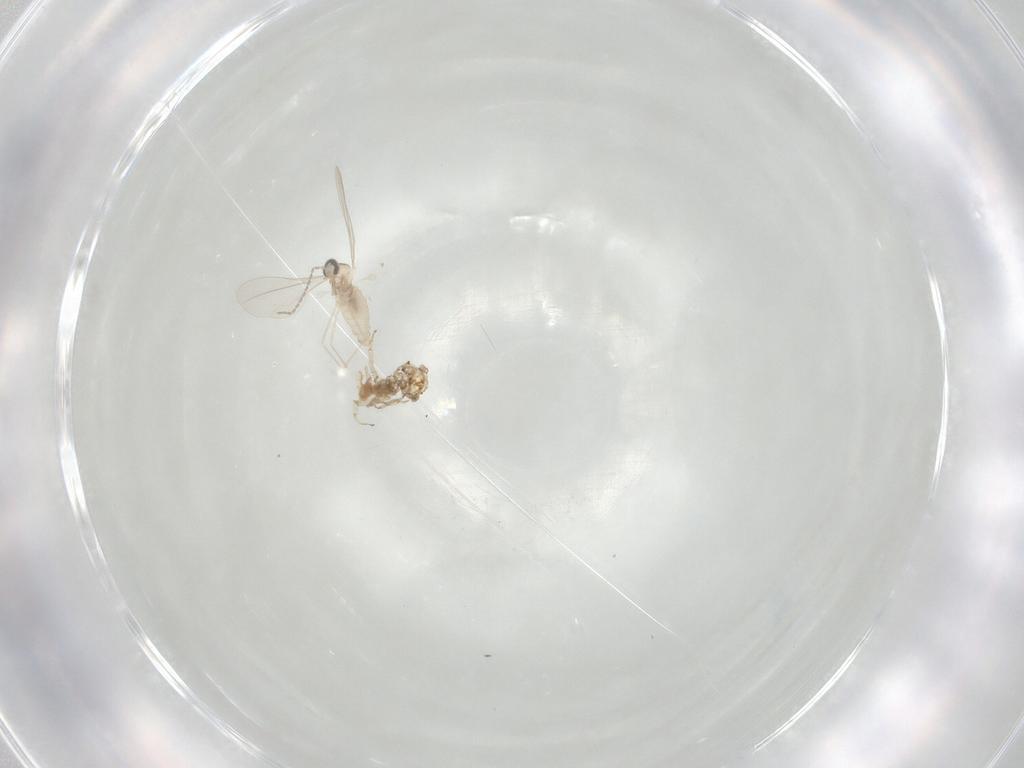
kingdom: Animalia
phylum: Arthropoda
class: Insecta
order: Diptera
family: Cecidomyiidae
